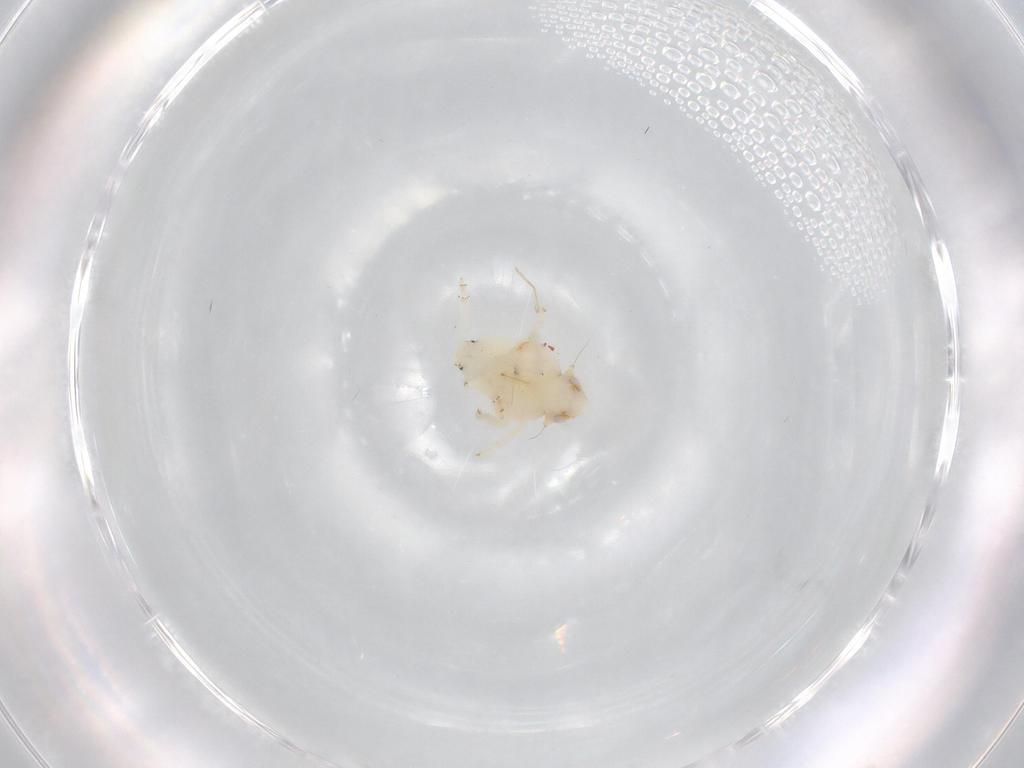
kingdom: Animalia
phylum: Arthropoda
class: Insecta
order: Hemiptera
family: Nogodinidae
